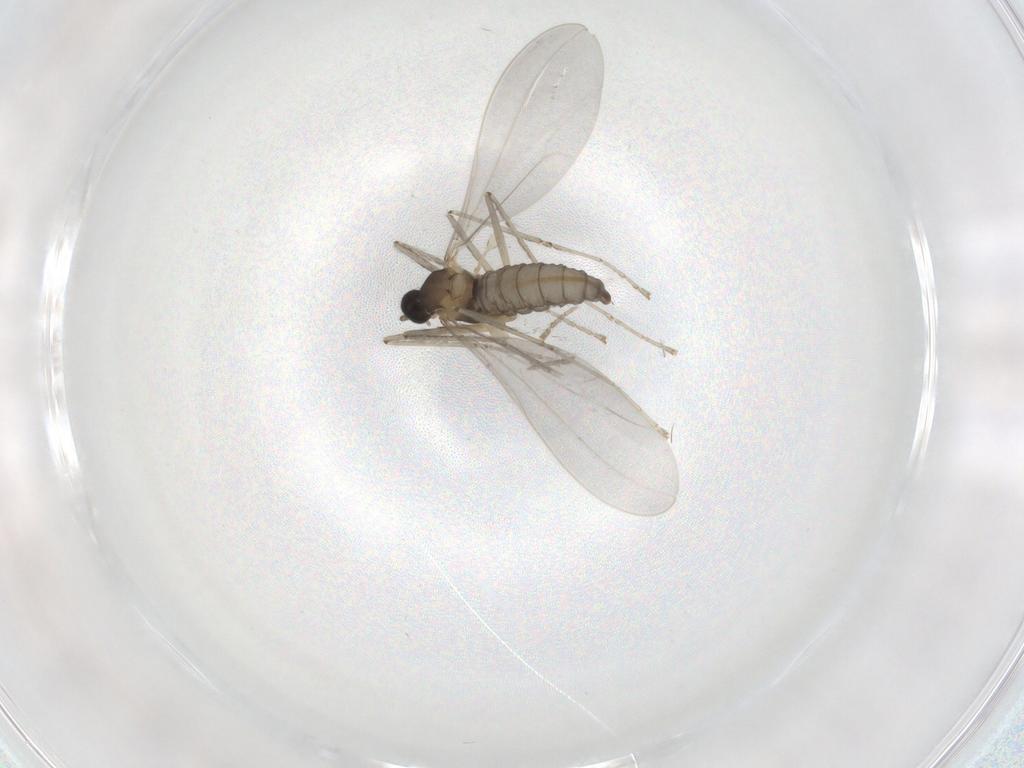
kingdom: Animalia
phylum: Arthropoda
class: Insecta
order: Diptera
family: Cecidomyiidae
